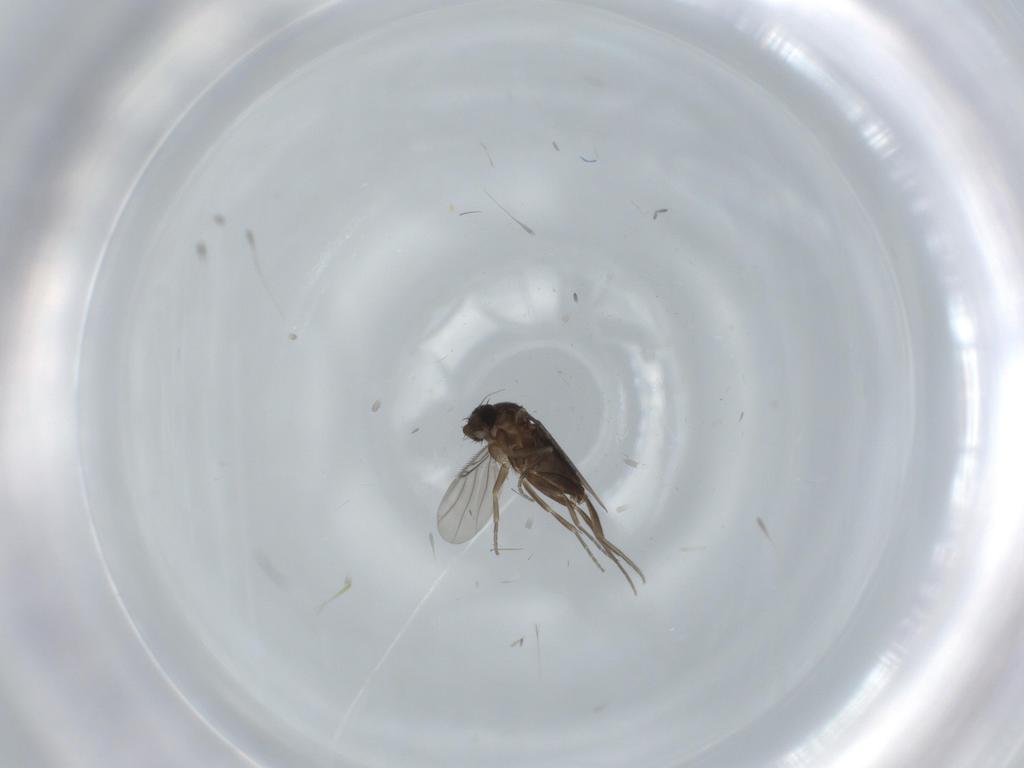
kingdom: Animalia
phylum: Arthropoda
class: Insecta
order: Diptera
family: Phoridae
